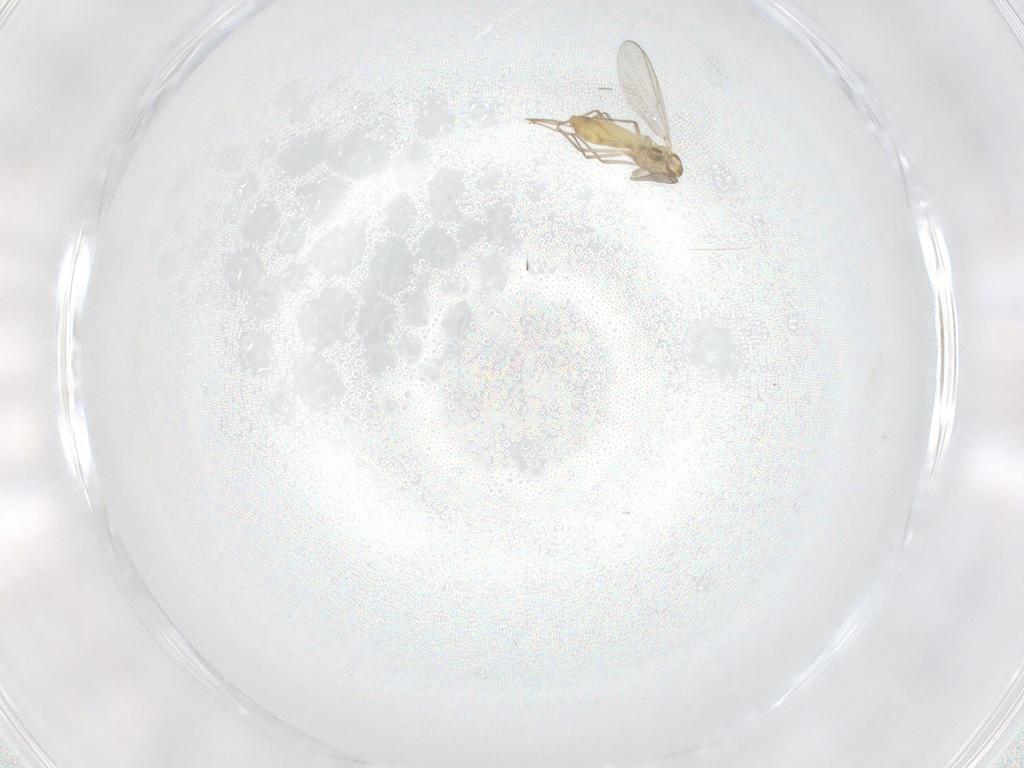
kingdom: Animalia
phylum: Arthropoda
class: Insecta
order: Diptera
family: Chironomidae
